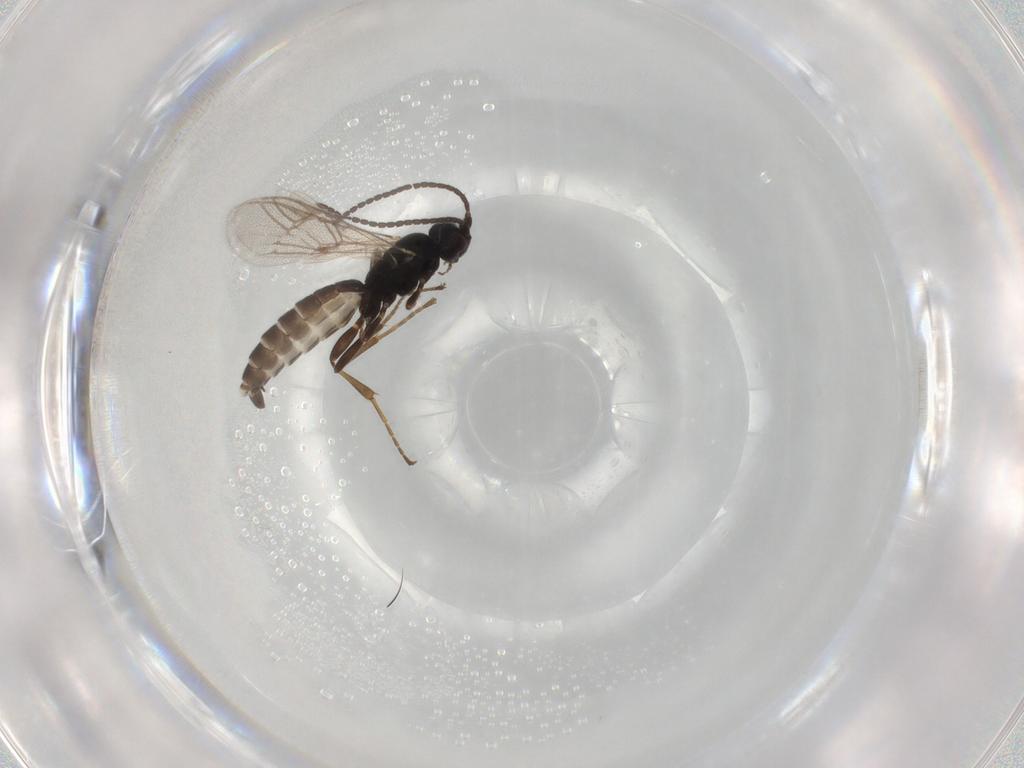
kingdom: Animalia
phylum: Arthropoda
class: Insecta
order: Hymenoptera
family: Ichneumonidae
